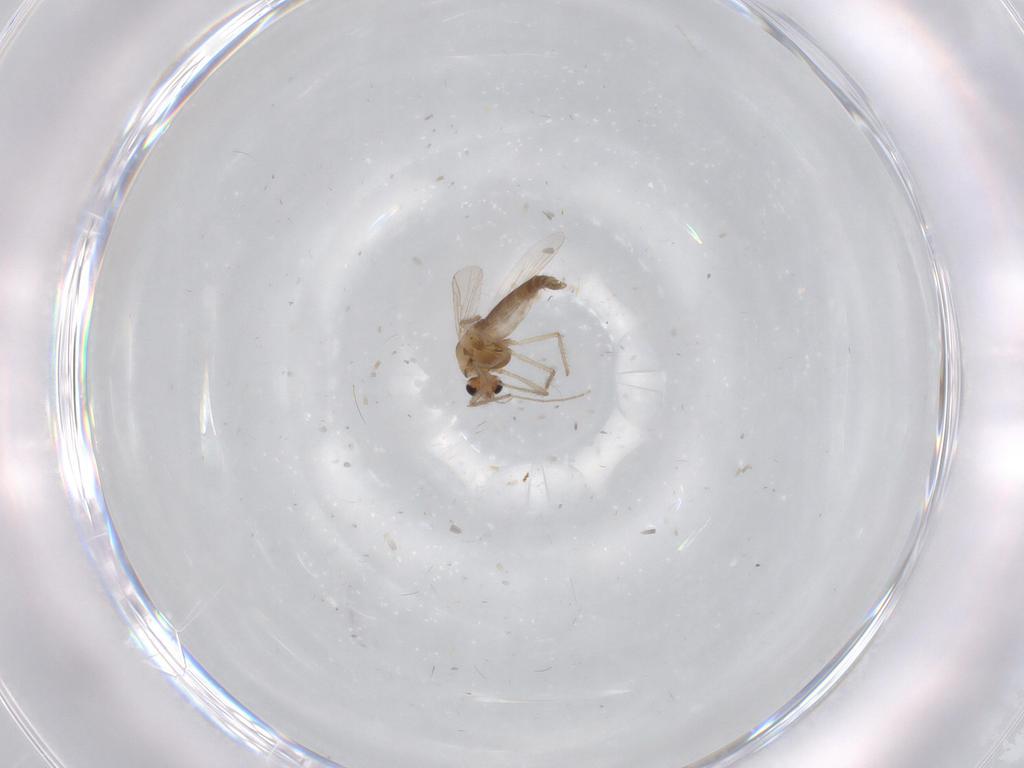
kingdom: Animalia
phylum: Arthropoda
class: Insecta
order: Diptera
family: Chironomidae
